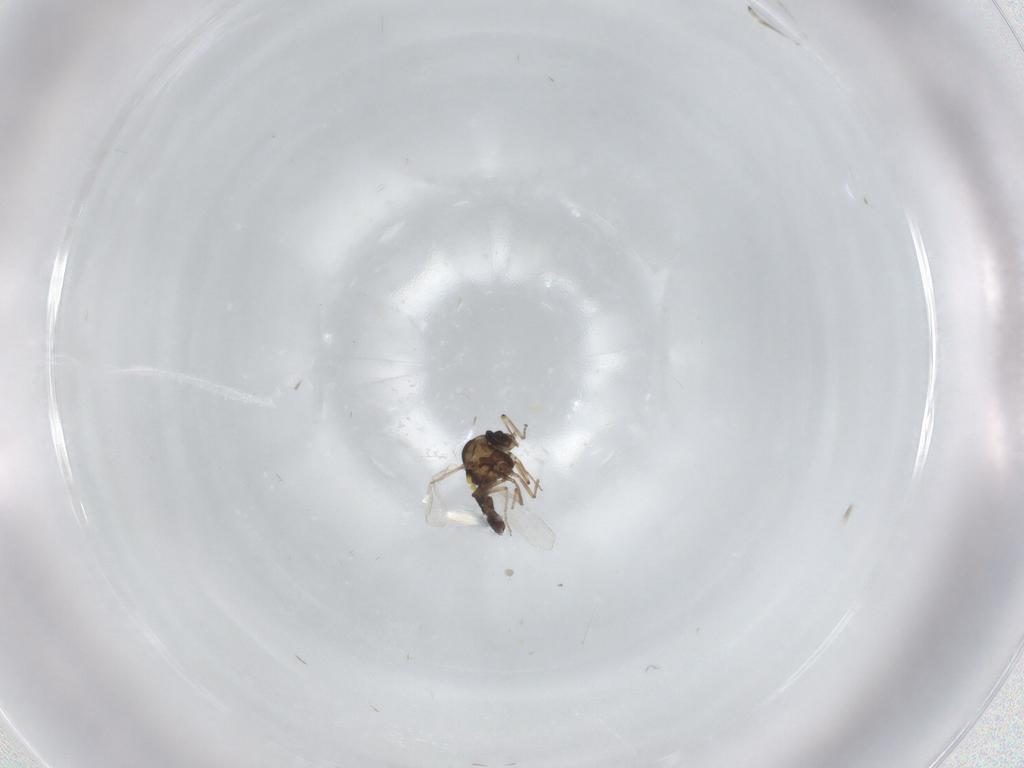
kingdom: Animalia
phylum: Arthropoda
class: Insecta
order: Diptera
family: Ceratopogonidae
